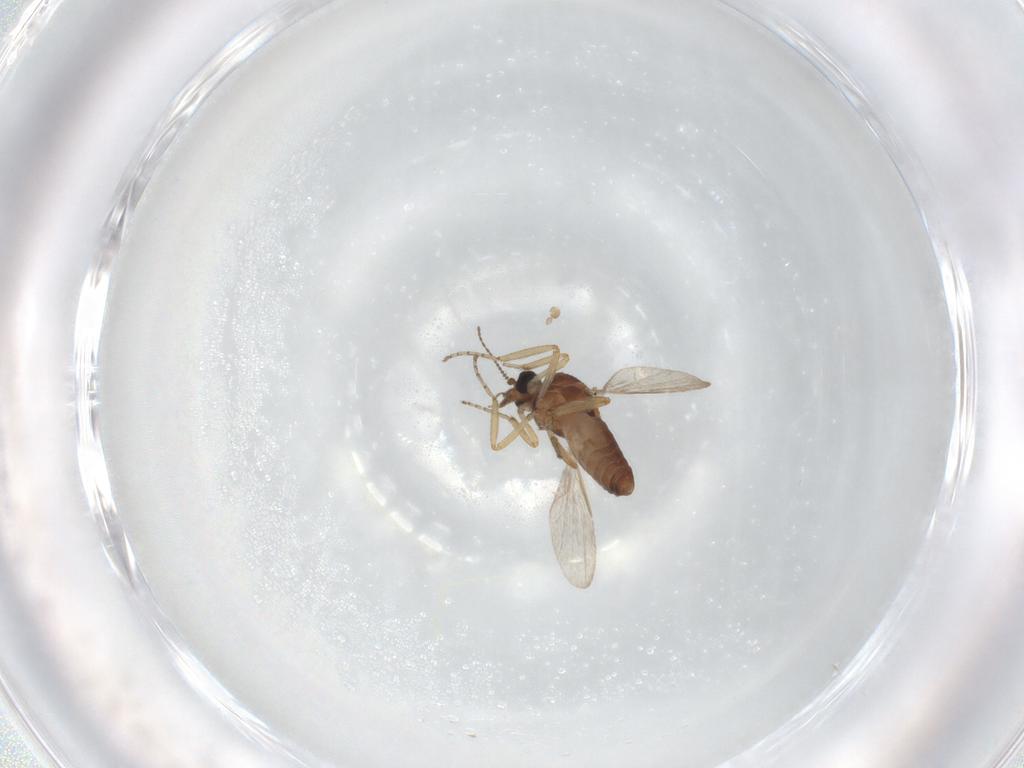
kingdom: Animalia
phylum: Arthropoda
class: Insecta
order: Diptera
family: Ceratopogonidae
